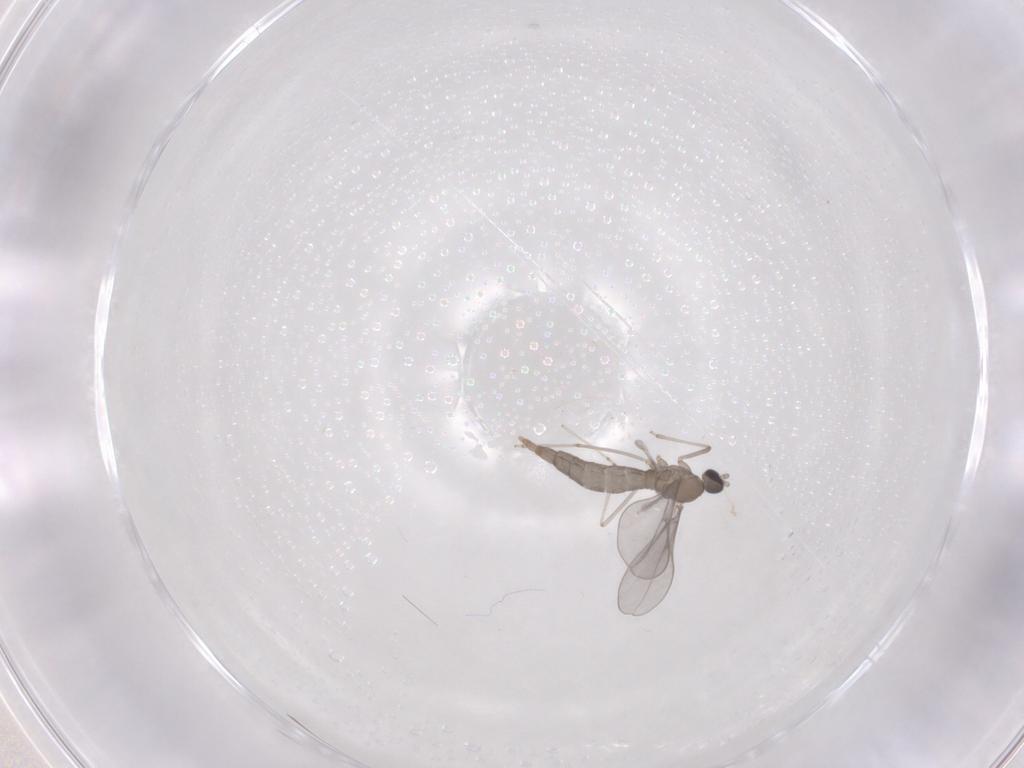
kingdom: Animalia
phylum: Arthropoda
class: Insecta
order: Diptera
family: Cecidomyiidae
